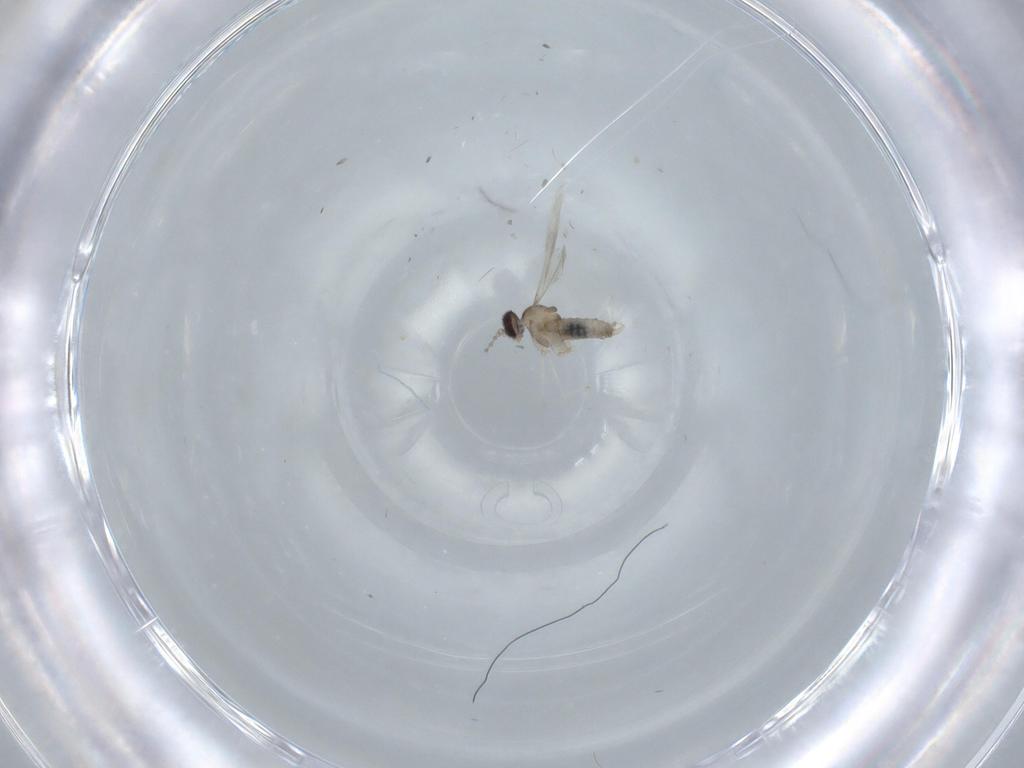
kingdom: Animalia
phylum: Arthropoda
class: Insecta
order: Diptera
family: Cecidomyiidae
